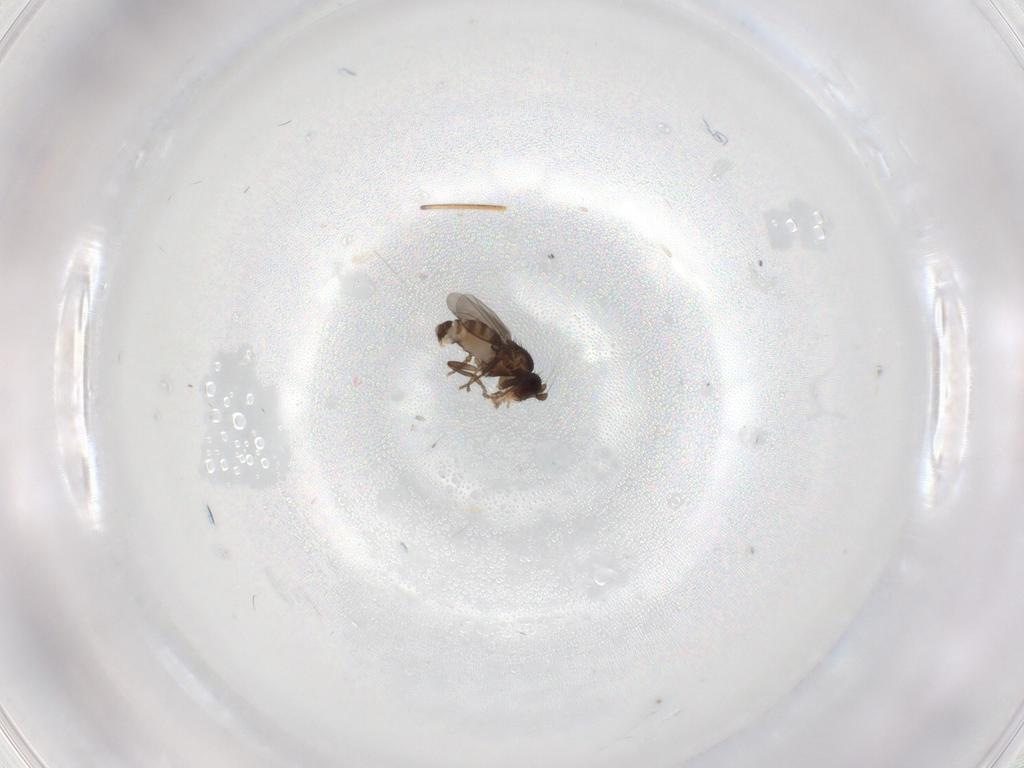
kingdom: Animalia
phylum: Arthropoda
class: Insecta
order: Diptera
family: Sphaeroceridae
